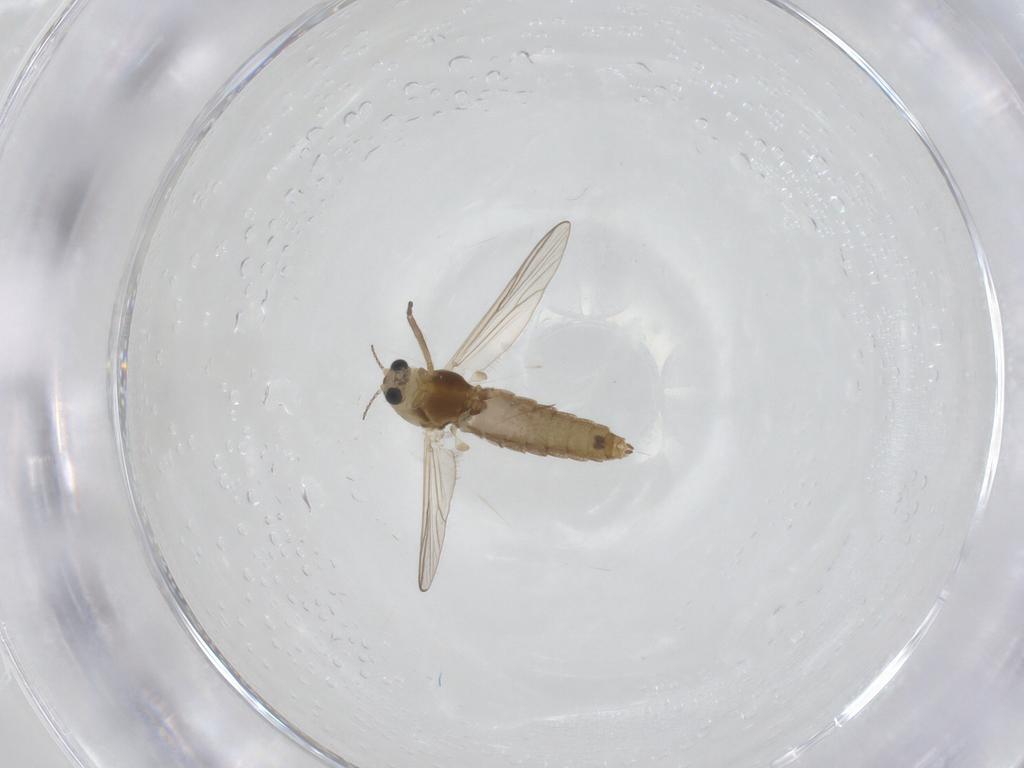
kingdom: Animalia
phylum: Arthropoda
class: Insecta
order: Diptera
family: Chironomidae
